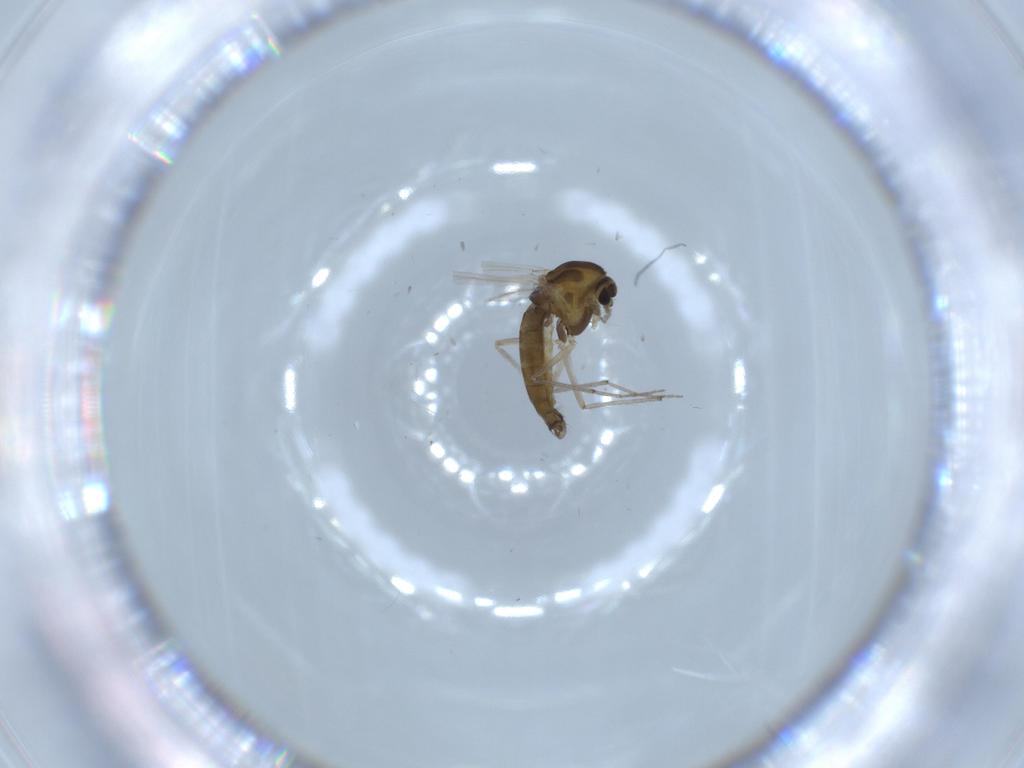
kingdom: Animalia
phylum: Arthropoda
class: Insecta
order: Diptera
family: Chironomidae
